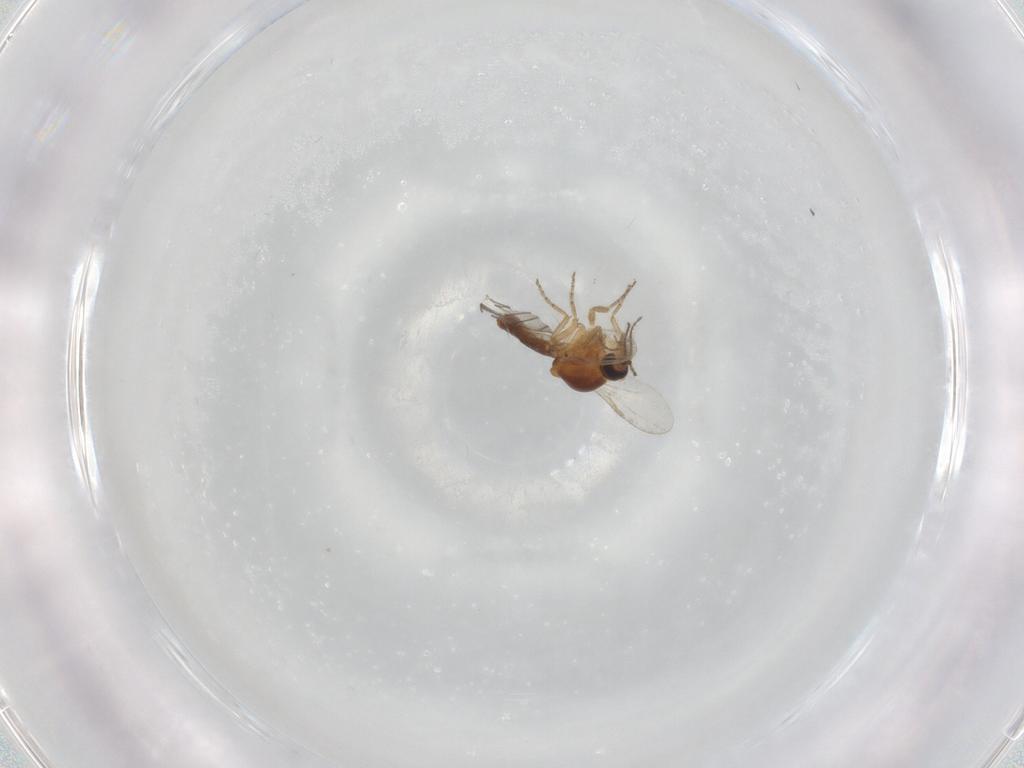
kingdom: Animalia
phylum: Arthropoda
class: Insecta
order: Diptera
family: Ceratopogonidae
